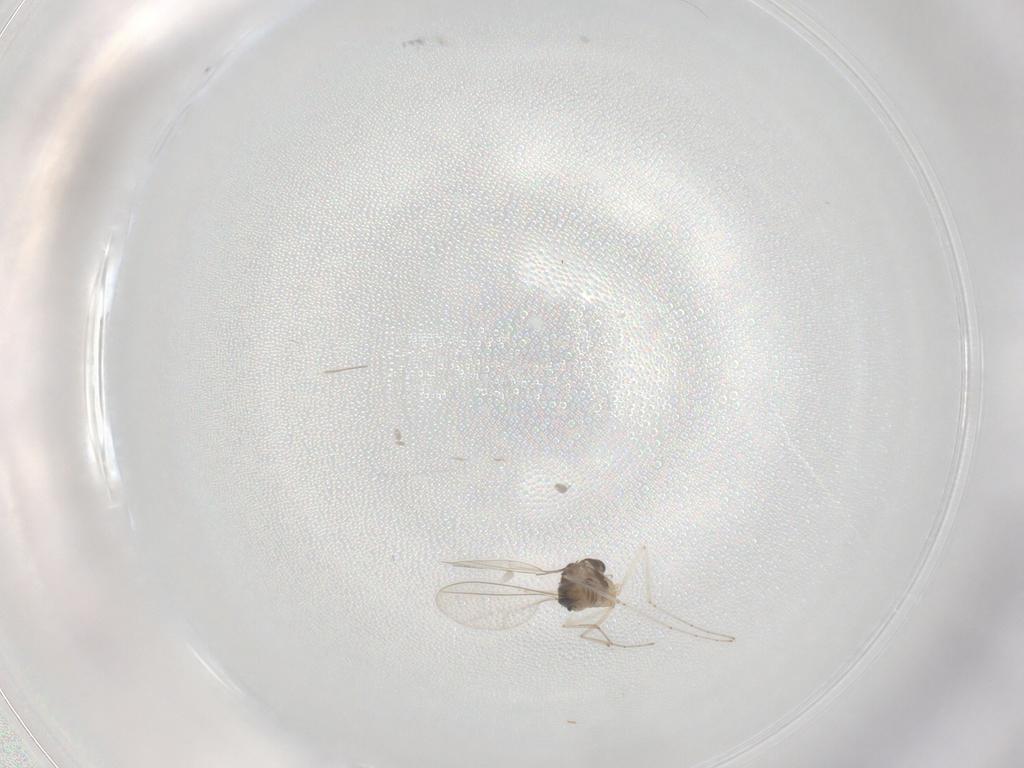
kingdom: Animalia
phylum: Arthropoda
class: Insecta
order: Diptera
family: Cecidomyiidae
